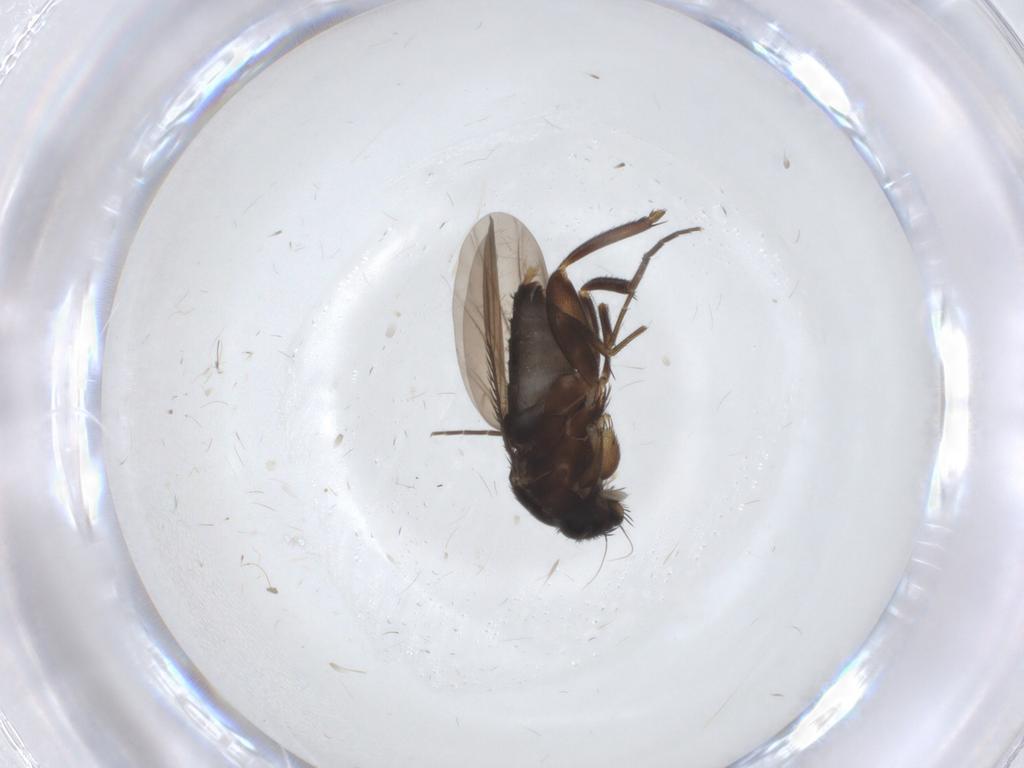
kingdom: Animalia
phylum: Arthropoda
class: Insecta
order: Diptera
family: Phoridae
